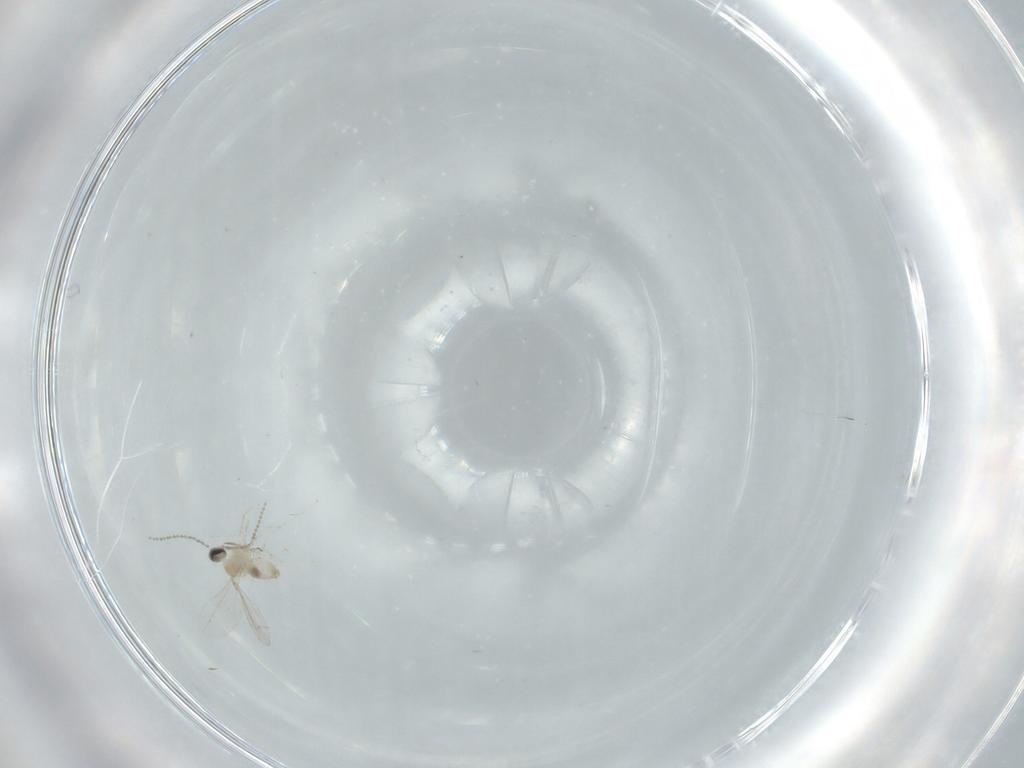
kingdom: Animalia
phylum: Arthropoda
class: Insecta
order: Diptera
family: Cecidomyiidae
